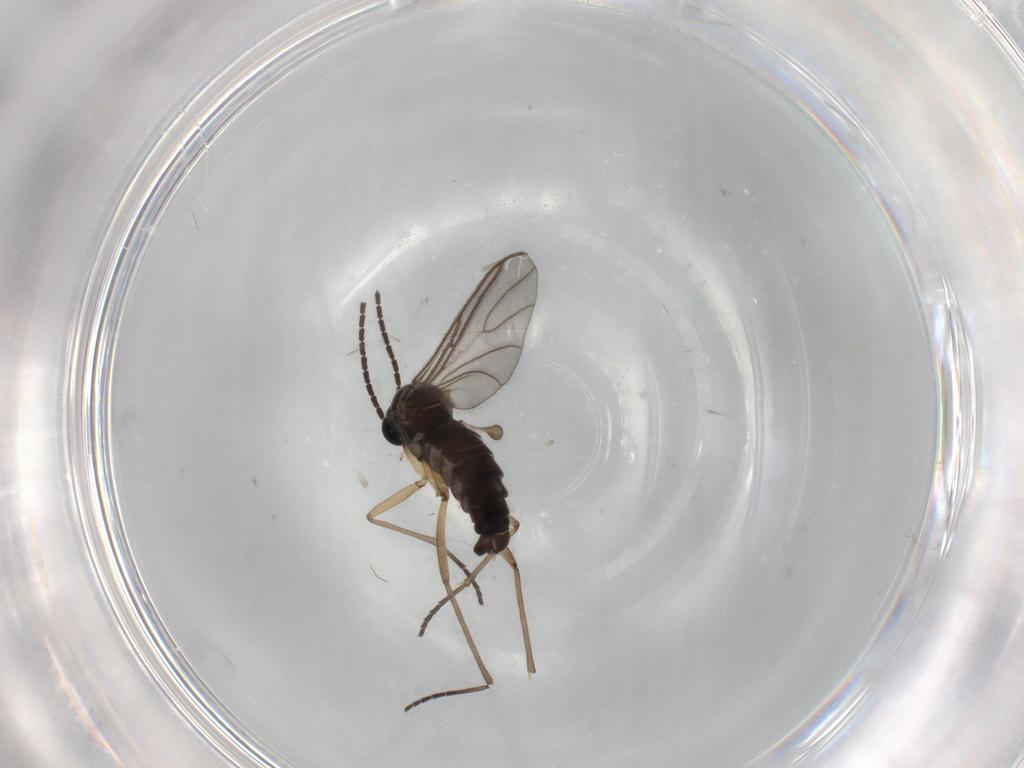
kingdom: Animalia
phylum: Arthropoda
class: Insecta
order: Diptera
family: Sciaridae
